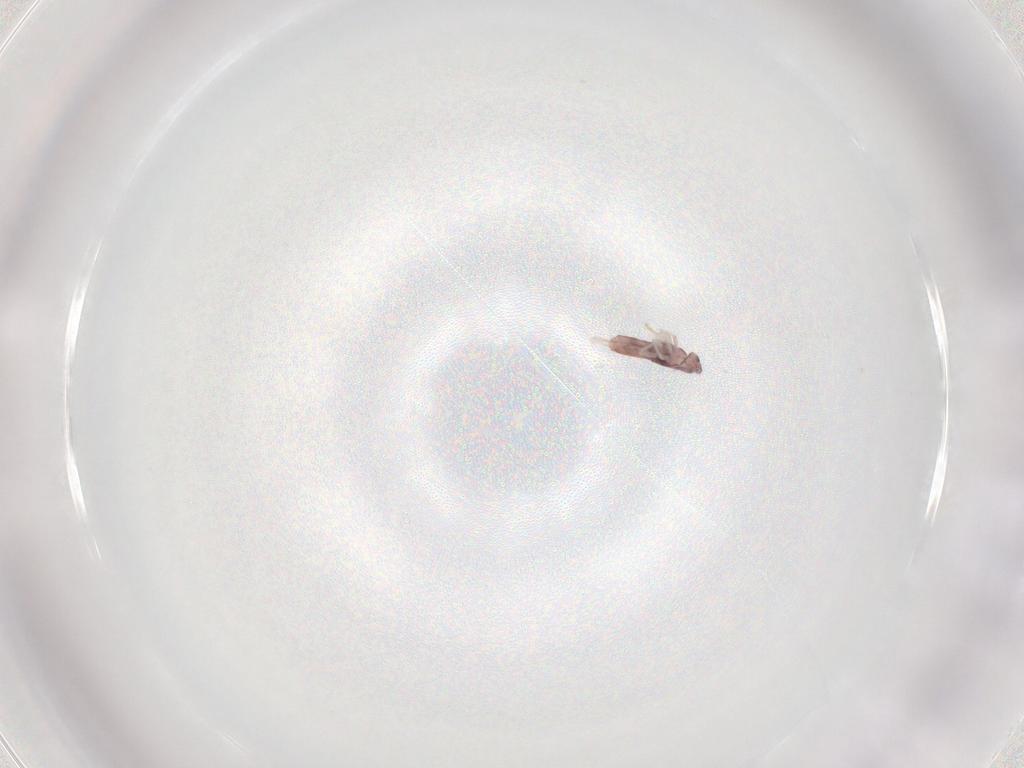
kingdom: Animalia
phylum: Arthropoda
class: Collembola
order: Entomobryomorpha
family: Entomobryidae
